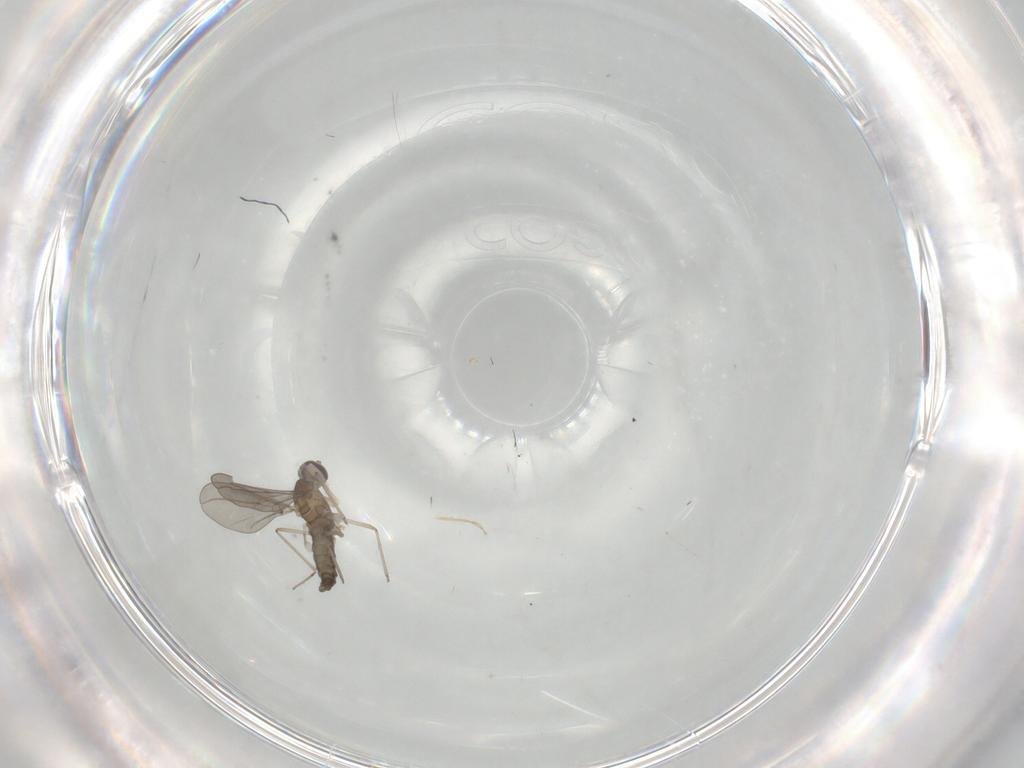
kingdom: Animalia
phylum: Arthropoda
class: Insecta
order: Diptera
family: Cecidomyiidae
